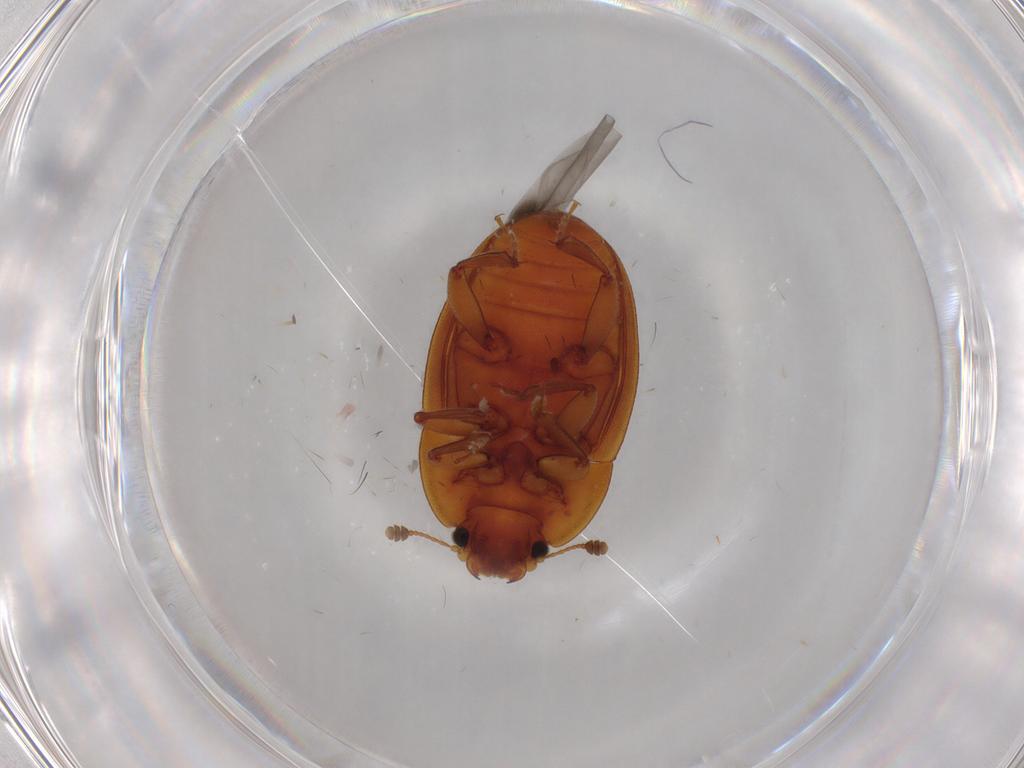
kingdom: Animalia
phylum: Arthropoda
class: Insecta
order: Coleoptera
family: Nitidulidae
